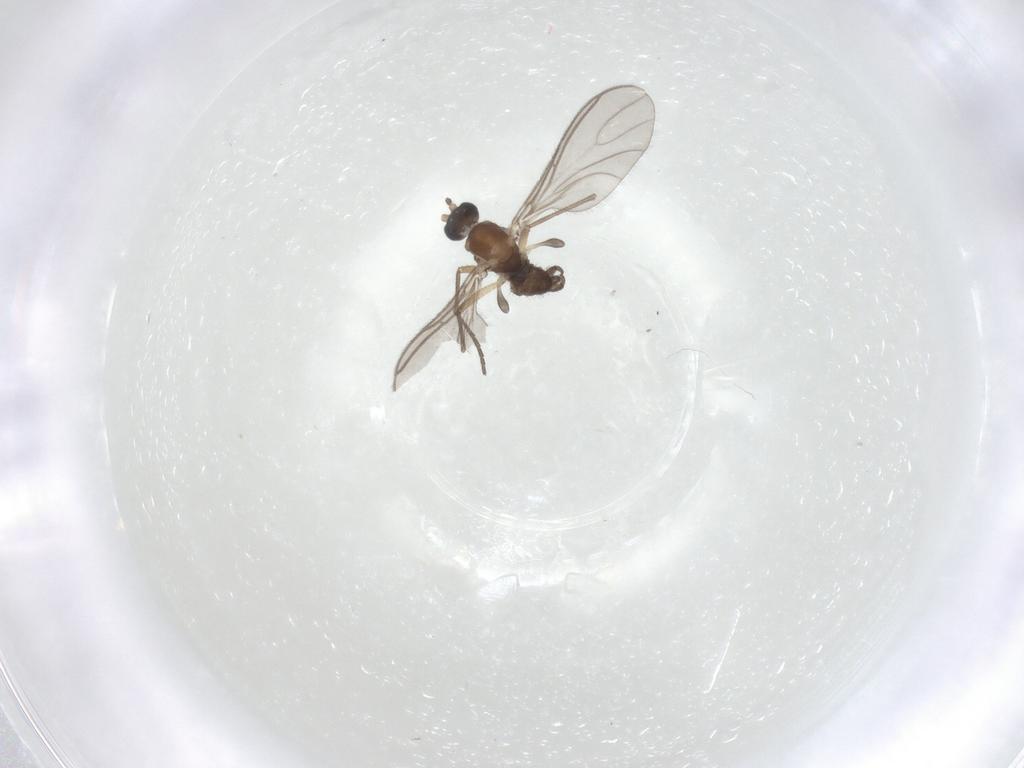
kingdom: Animalia
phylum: Arthropoda
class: Insecta
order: Diptera
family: Sciaridae
